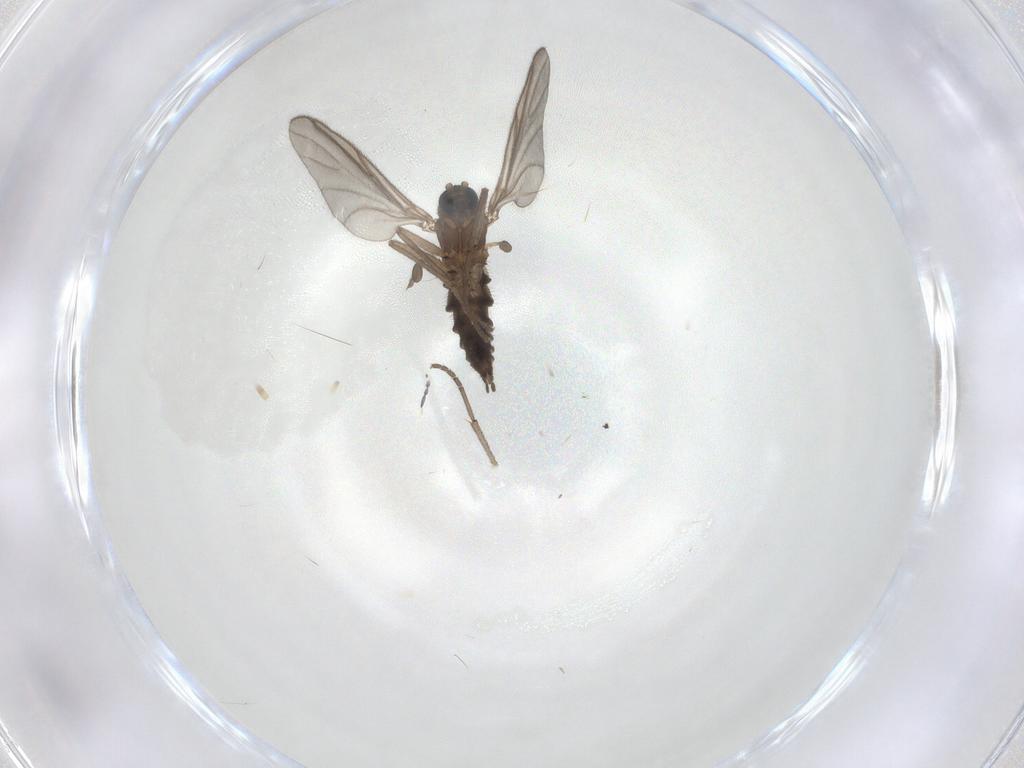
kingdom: Animalia
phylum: Arthropoda
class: Insecta
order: Diptera
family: Sciaridae
